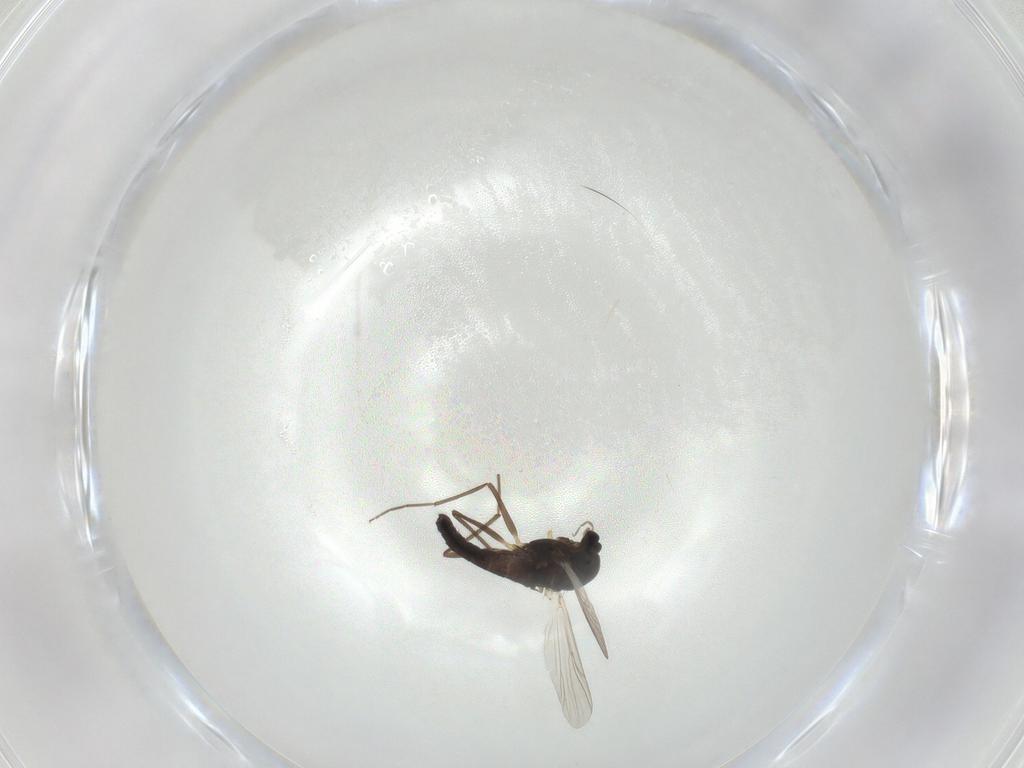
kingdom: Animalia
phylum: Arthropoda
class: Insecta
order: Diptera
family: Chironomidae
